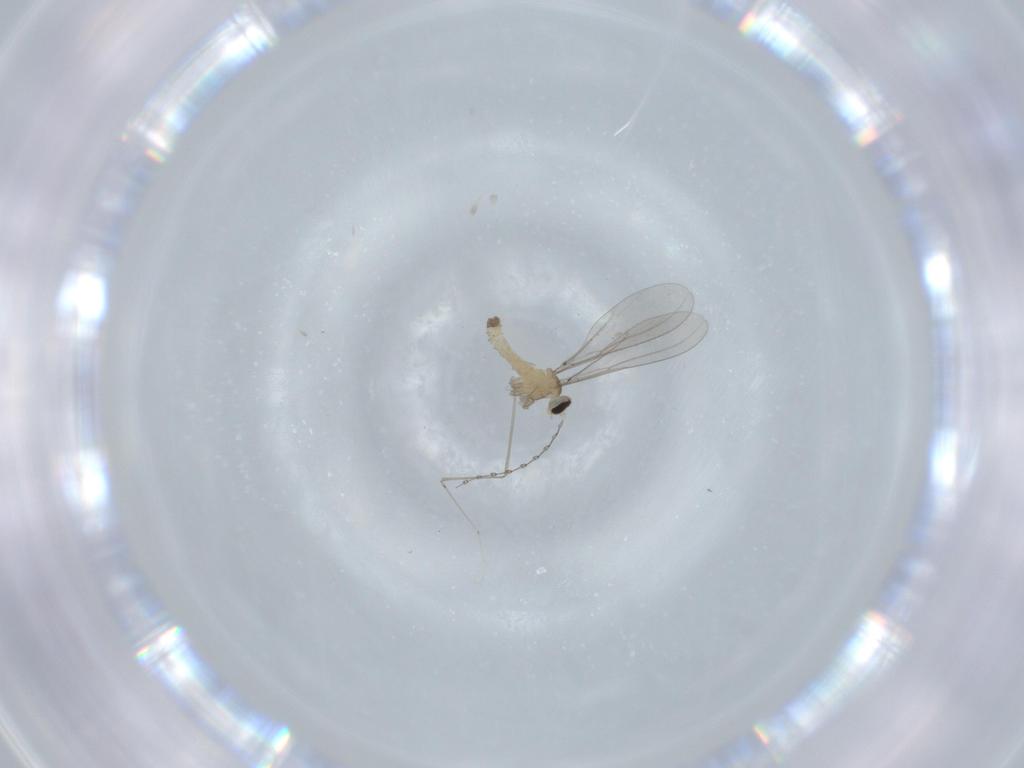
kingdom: Animalia
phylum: Arthropoda
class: Insecta
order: Diptera
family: Cecidomyiidae
